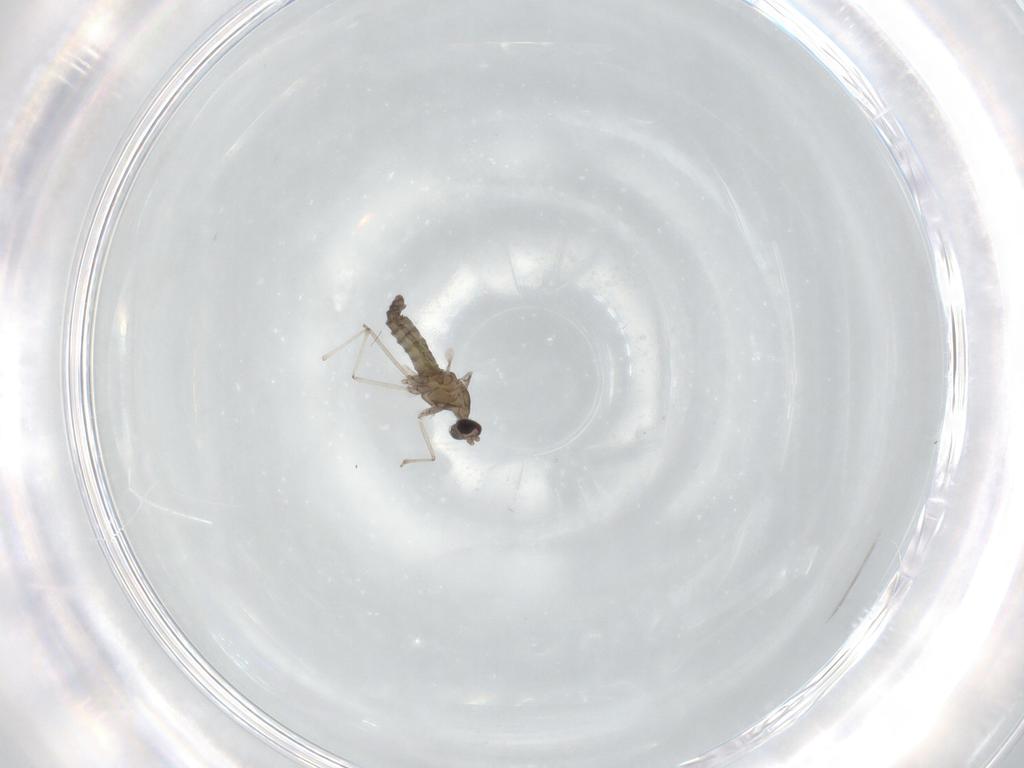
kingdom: Animalia
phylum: Arthropoda
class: Insecta
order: Diptera
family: Cecidomyiidae
